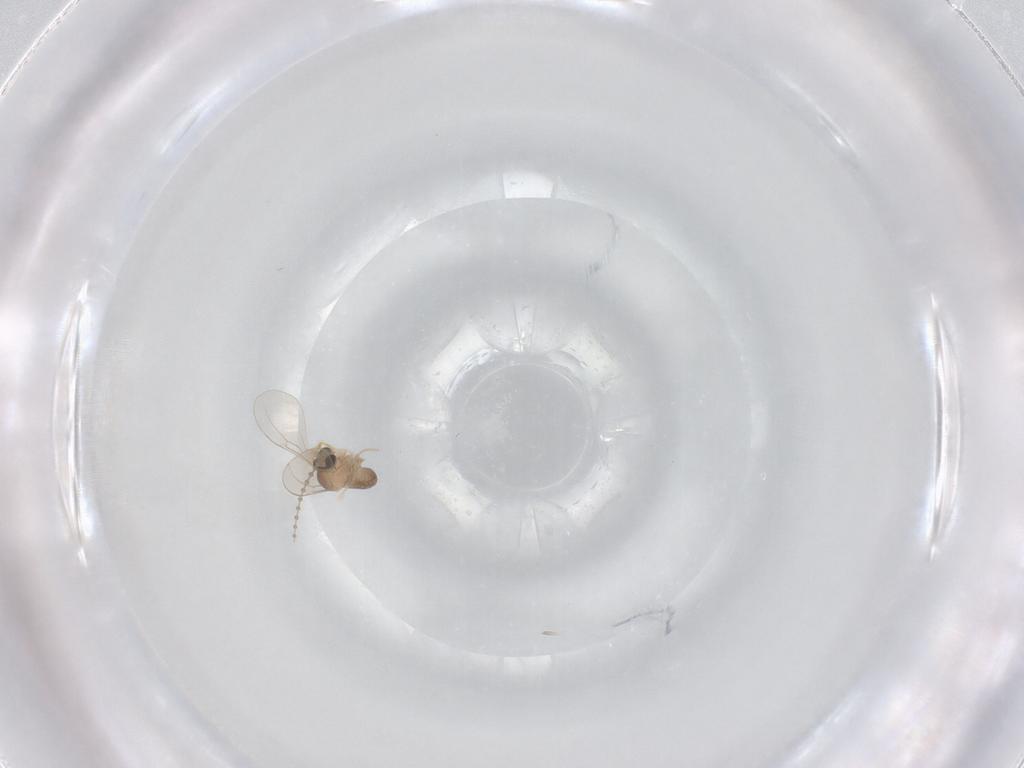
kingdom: Animalia
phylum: Arthropoda
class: Insecta
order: Diptera
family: Cecidomyiidae
